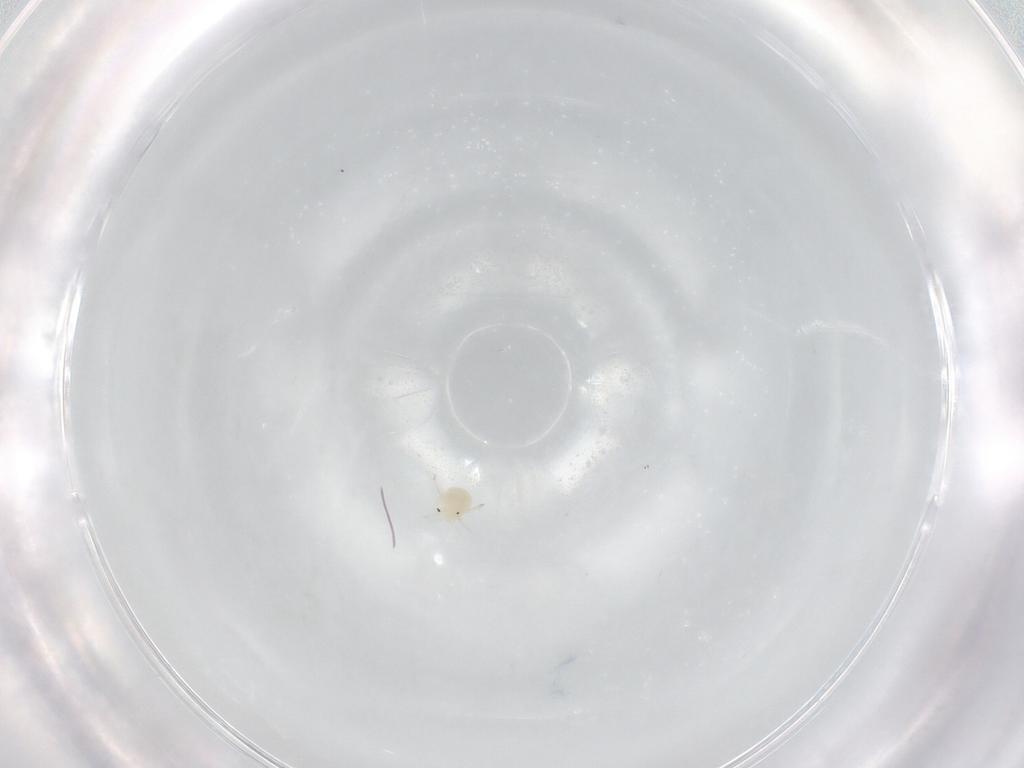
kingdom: Animalia
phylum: Arthropoda
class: Arachnida
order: Trombidiformes
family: Sperchontidae
